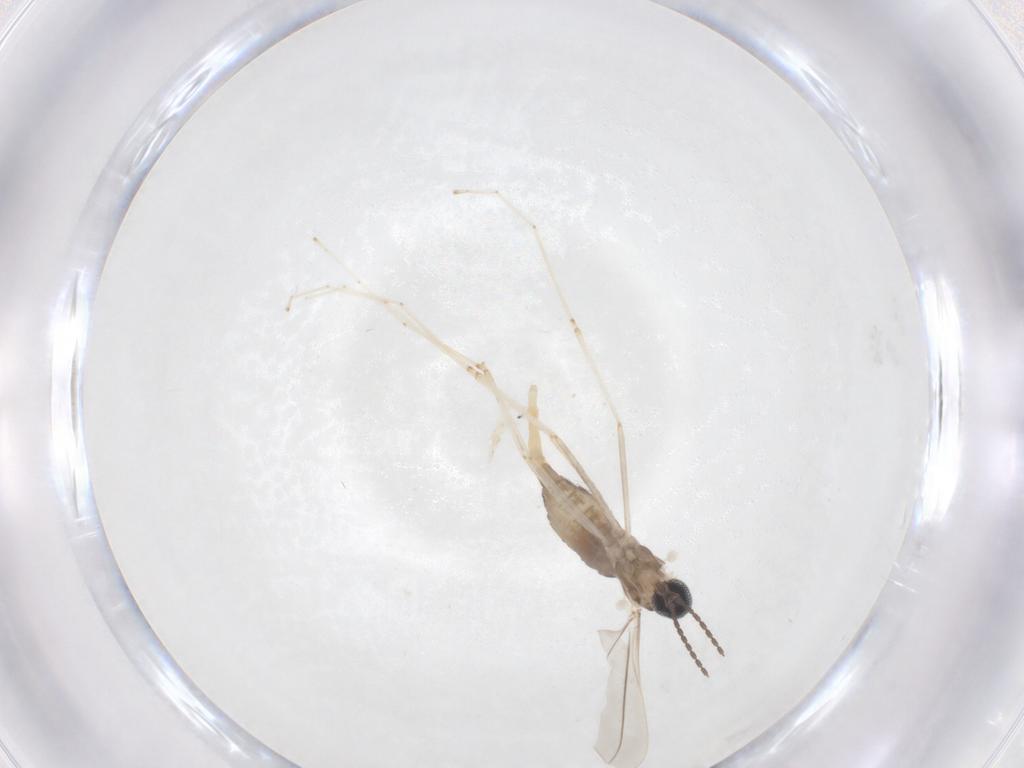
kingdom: Animalia
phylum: Arthropoda
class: Insecta
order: Diptera
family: Cecidomyiidae
